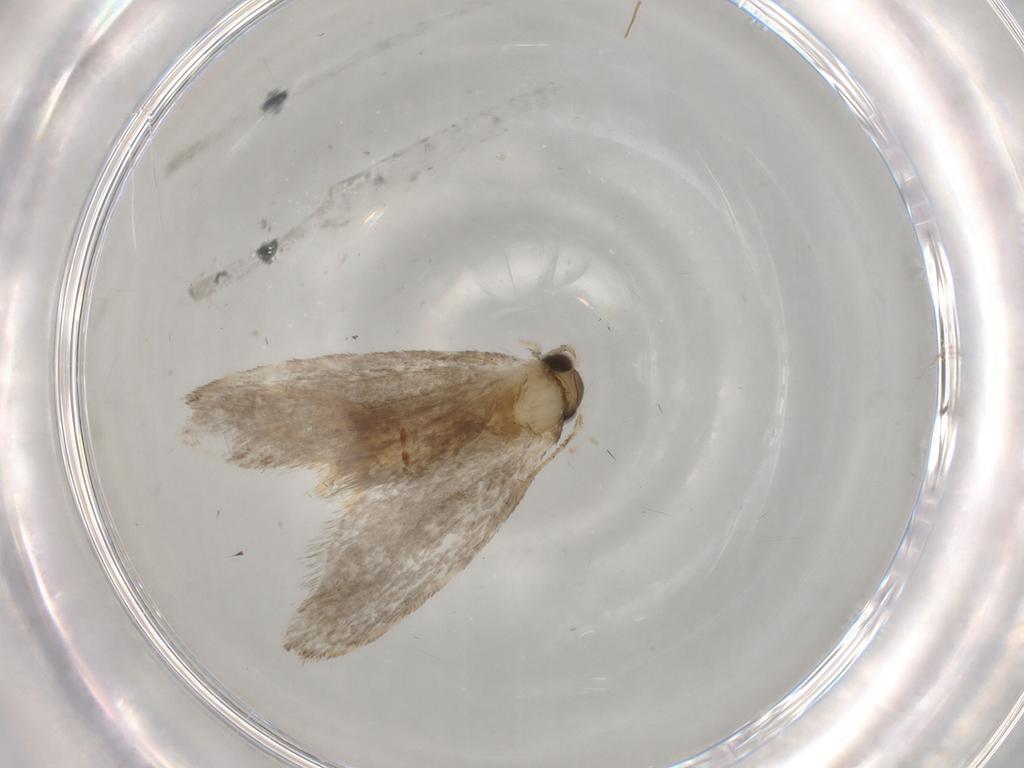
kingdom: Animalia
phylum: Arthropoda
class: Insecta
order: Lepidoptera
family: Tineidae
